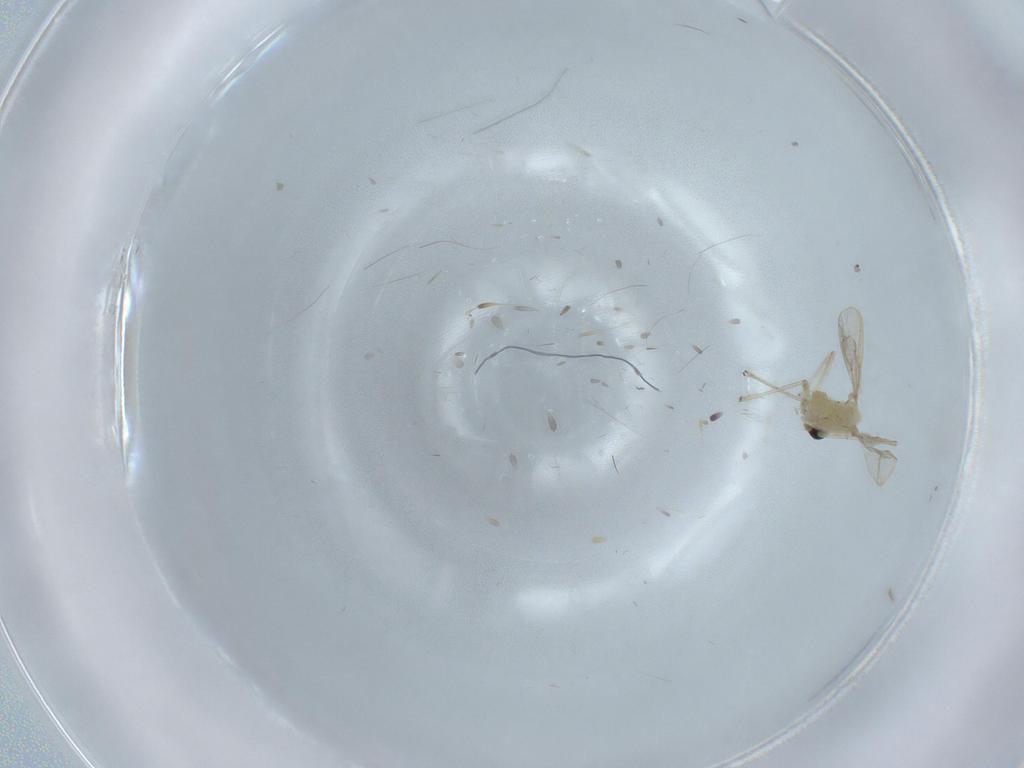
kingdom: Animalia
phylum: Arthropoda
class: Insecta
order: Diptera
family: Chironomidae
